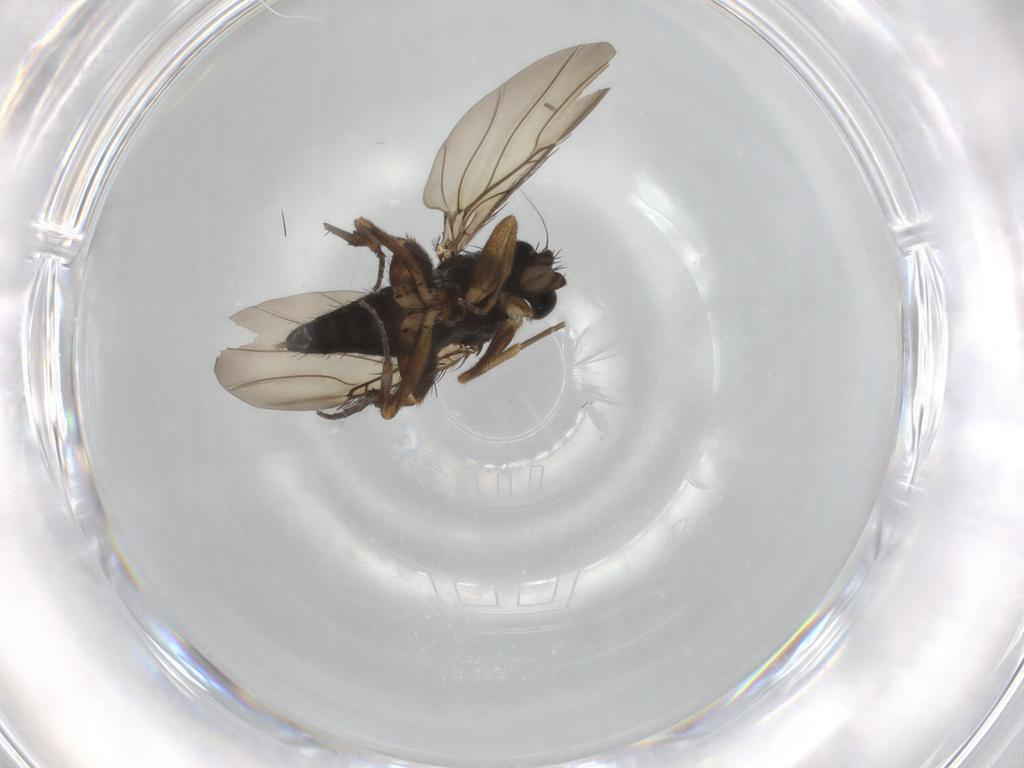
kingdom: Animalia
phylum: Arthropoda
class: Insecta
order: Diptera
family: Phoridae
